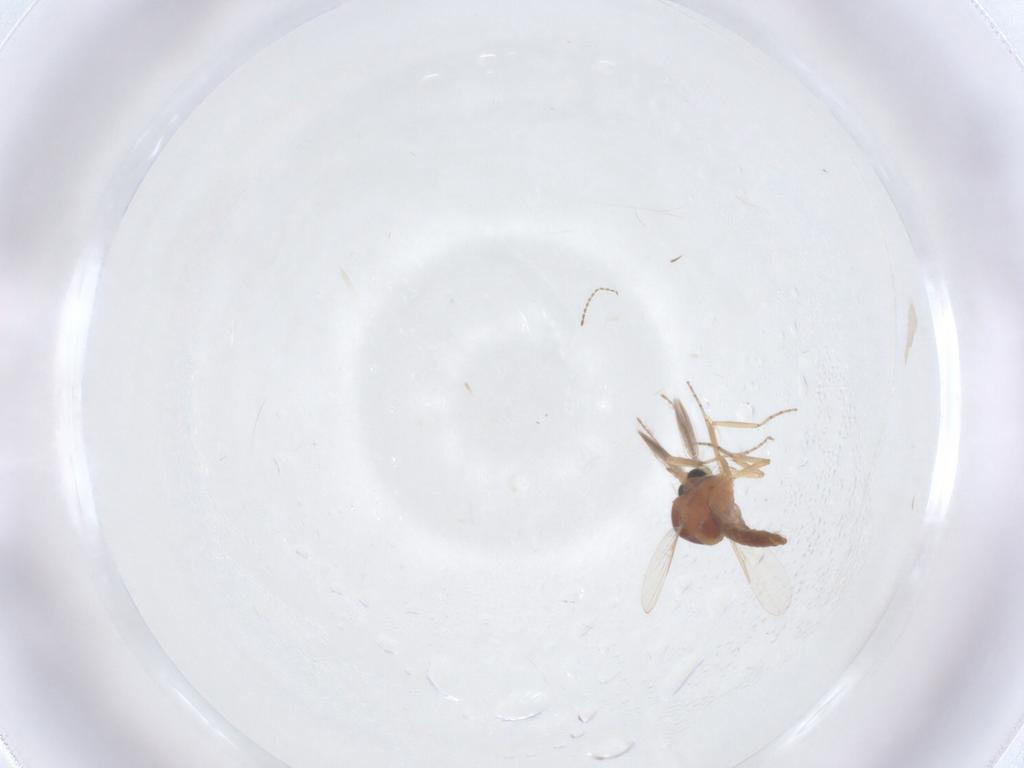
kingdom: Animalia
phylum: Arthropoda
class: Insecta
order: Diptera
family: Ceratopogonidae
